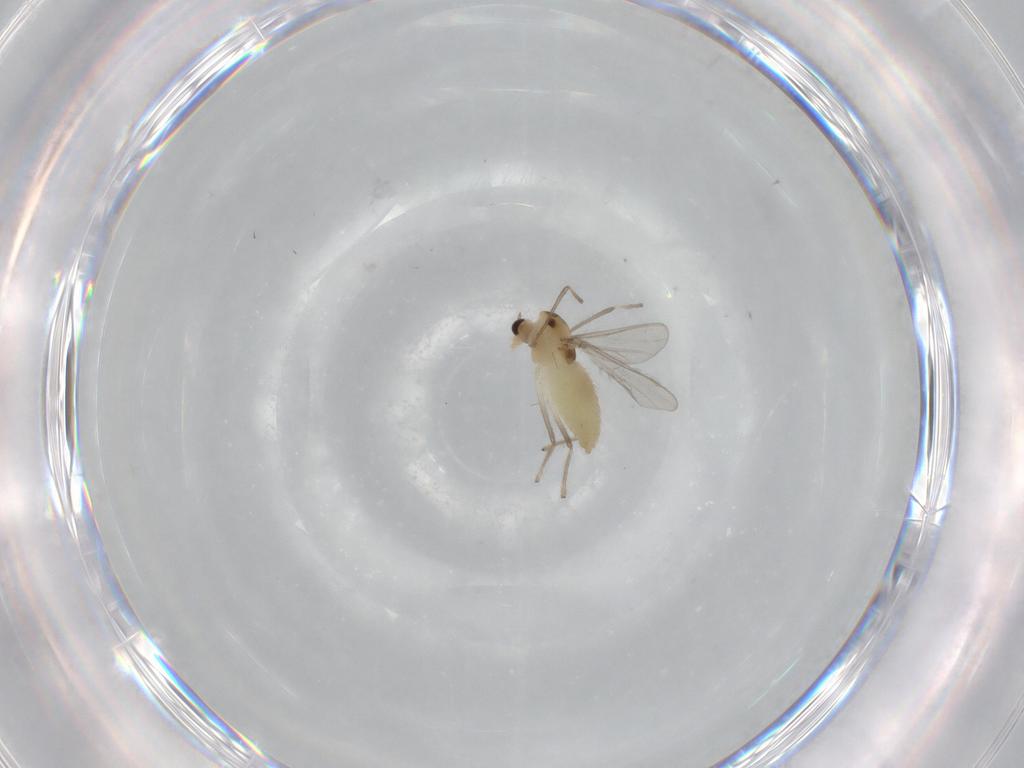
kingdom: Animalia
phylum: Arthropoda
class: Insecta
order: Diptera
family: Chironomidae
